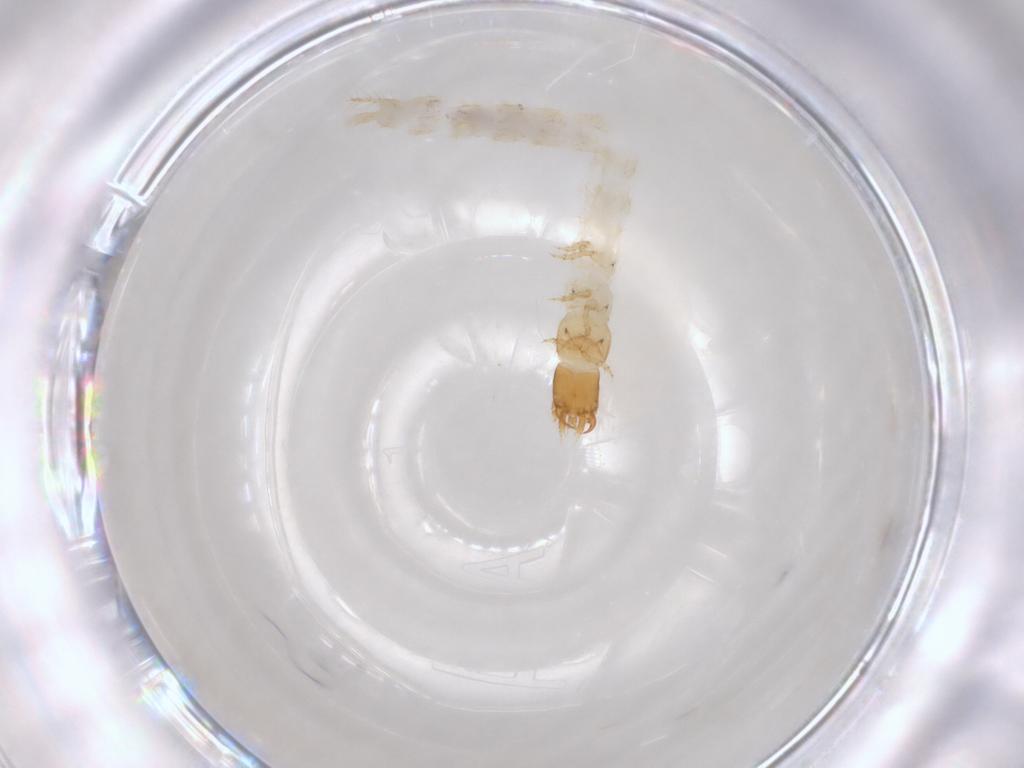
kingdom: Animalia
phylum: Arthropoda
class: Insecta
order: Coleoptera
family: Carabidae
